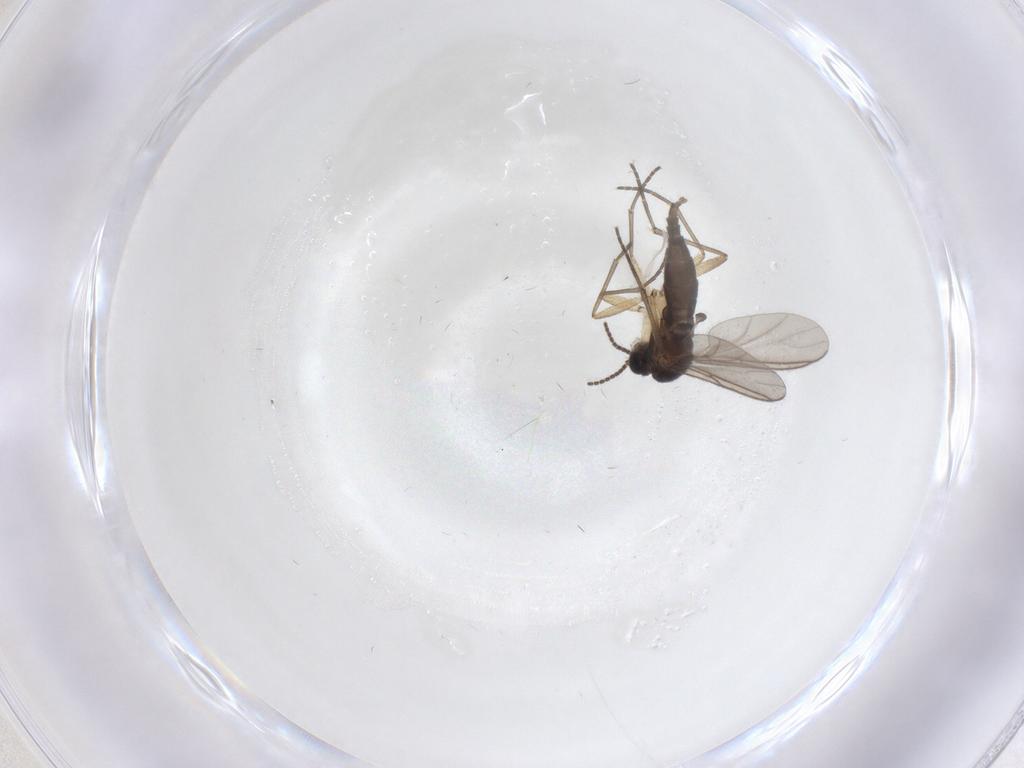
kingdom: Animalia
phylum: Arthropoda
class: Insecta
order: Diptera
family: Sciaridae
